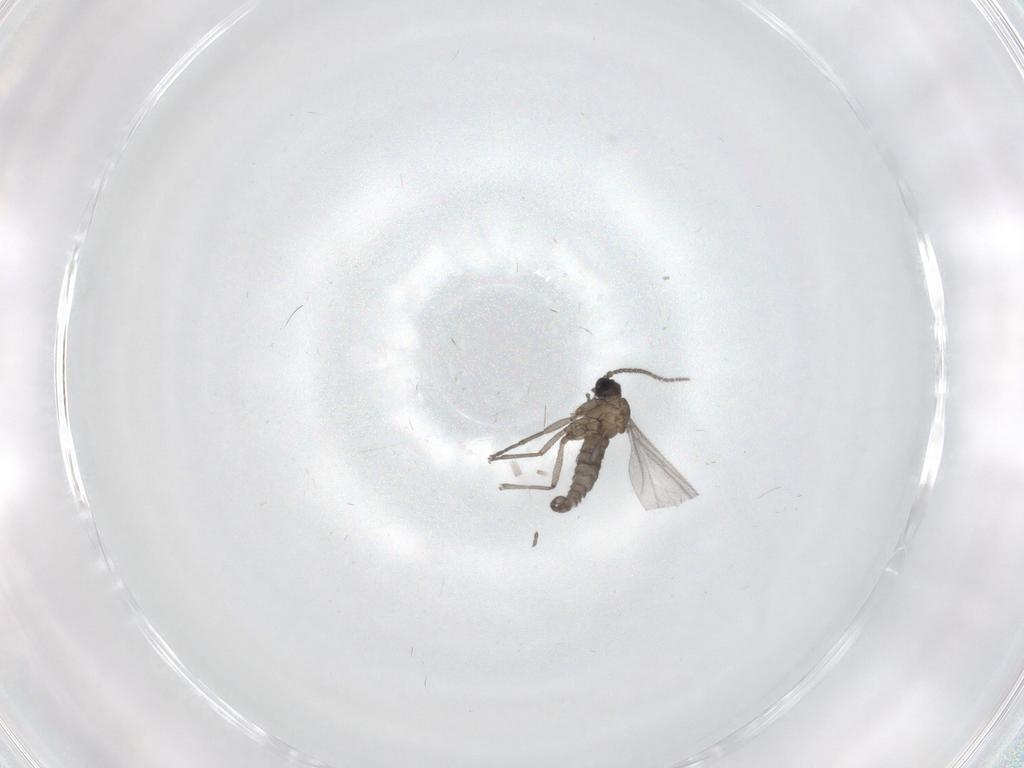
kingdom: Animalia
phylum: Arthropoda
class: Insecta
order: Diptera
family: Sciaridae
